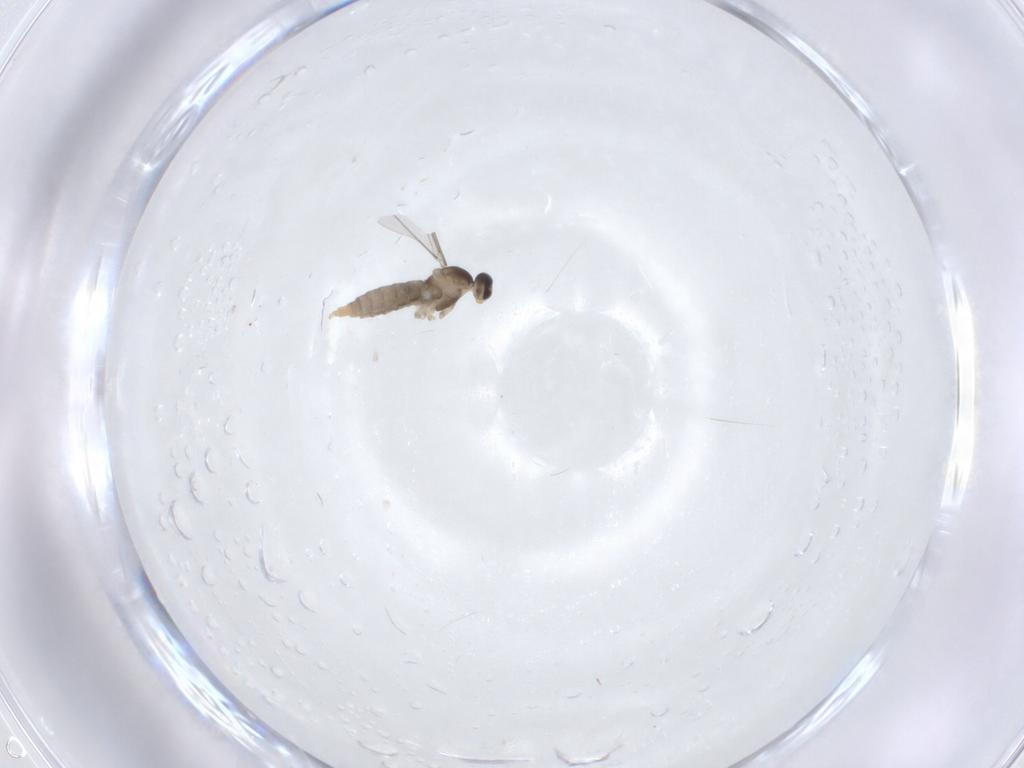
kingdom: Animalia
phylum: Arthropoda
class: Insecta
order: Diptera
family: Cecidomyiidae
